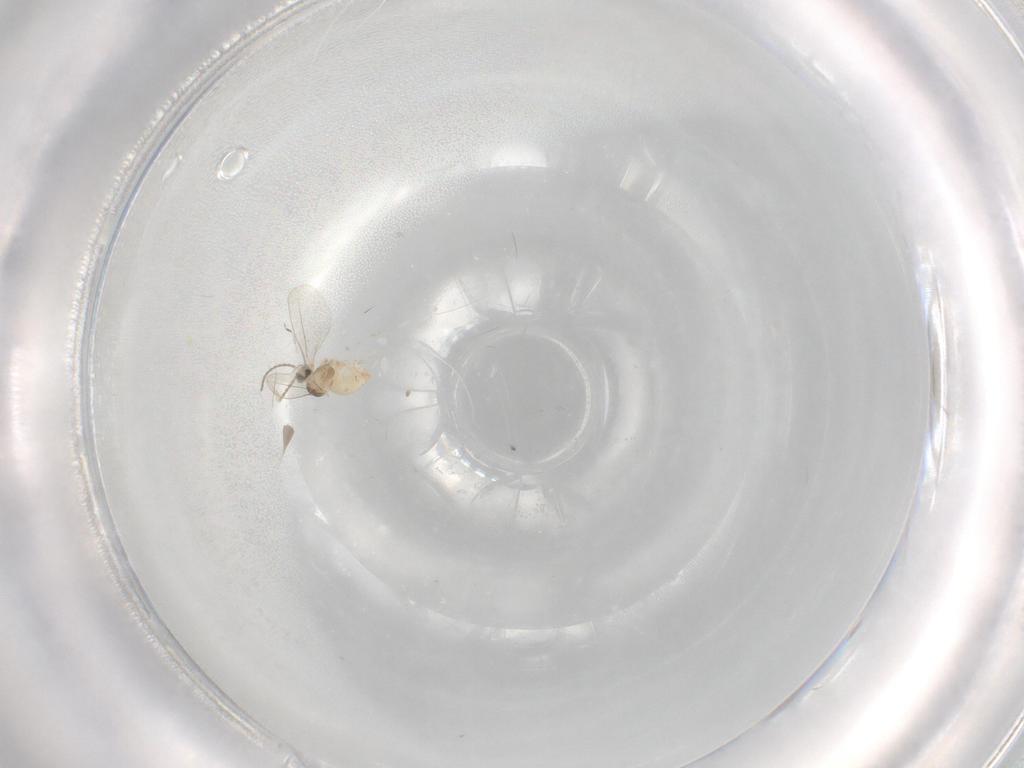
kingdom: Animalia
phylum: Arthropoda
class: Insecta
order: Diptera
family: Cecidomyiidae
